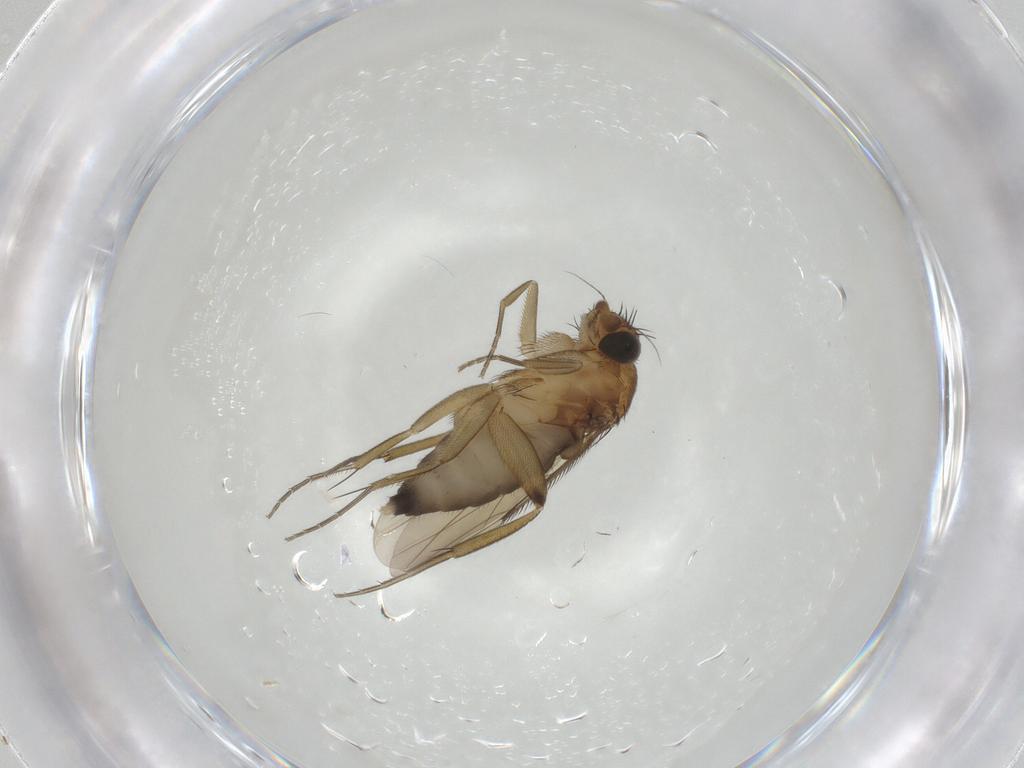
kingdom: Animalia
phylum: Arthropoda
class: Insecta
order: Diptera
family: Phoridae
